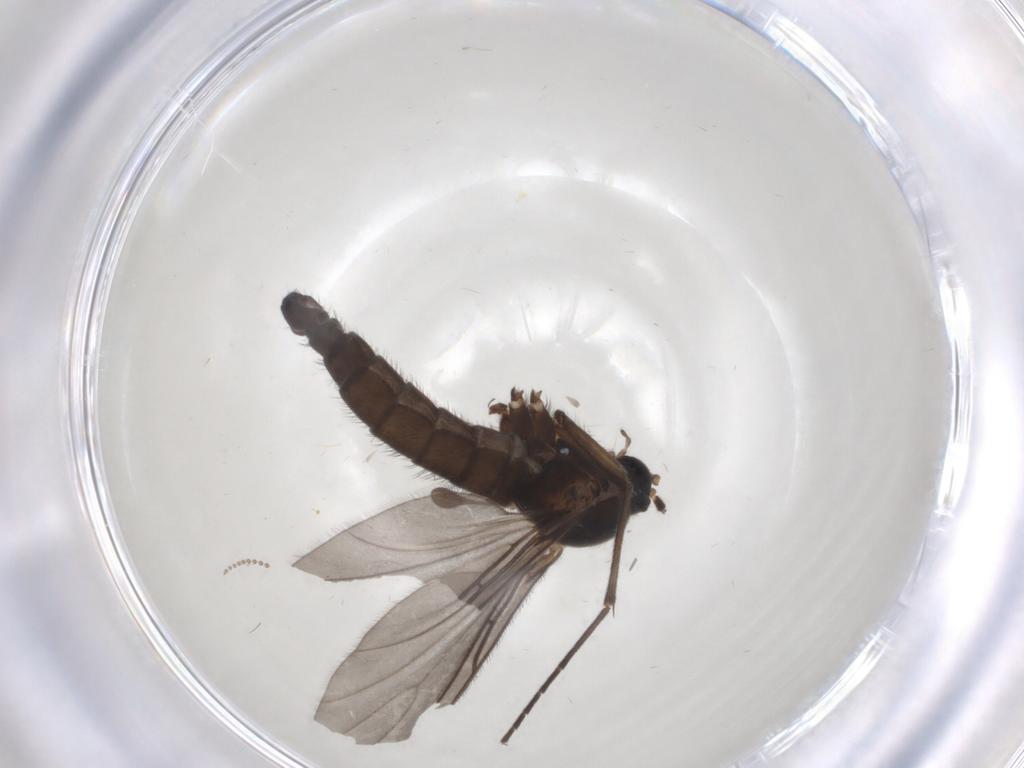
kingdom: Animalia
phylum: Arthropoda
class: Insecta
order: Diptera
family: Sciaridae
